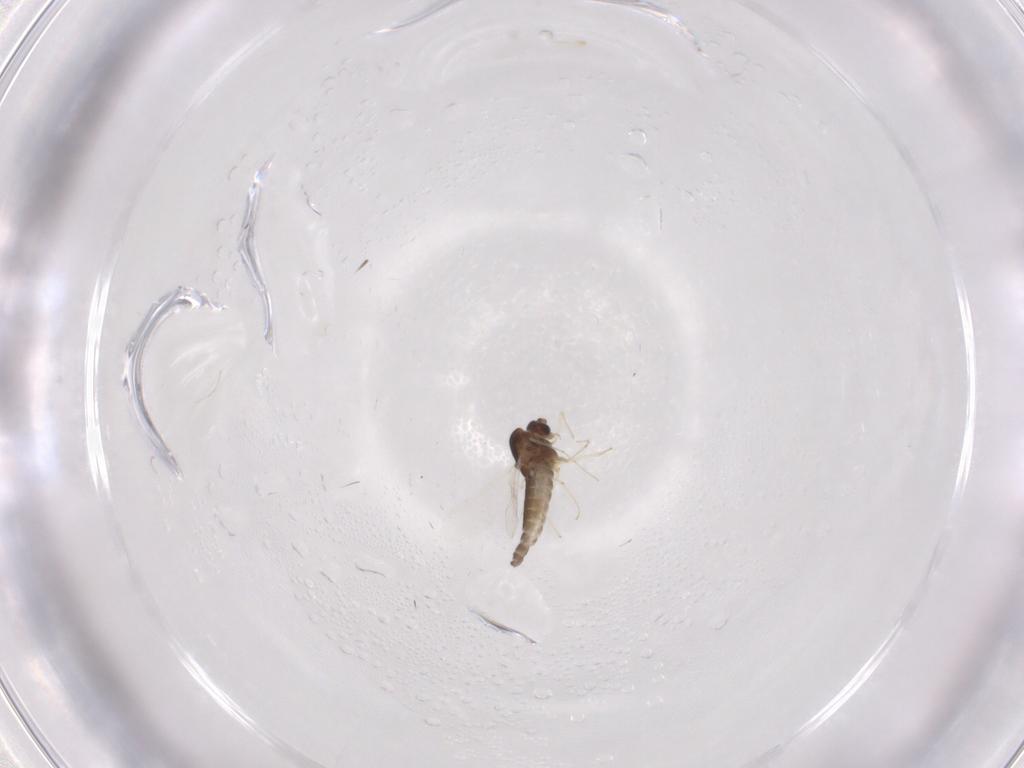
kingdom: Animalia
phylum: Arthropoda
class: Insecta
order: Diptera
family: Chironomidae
